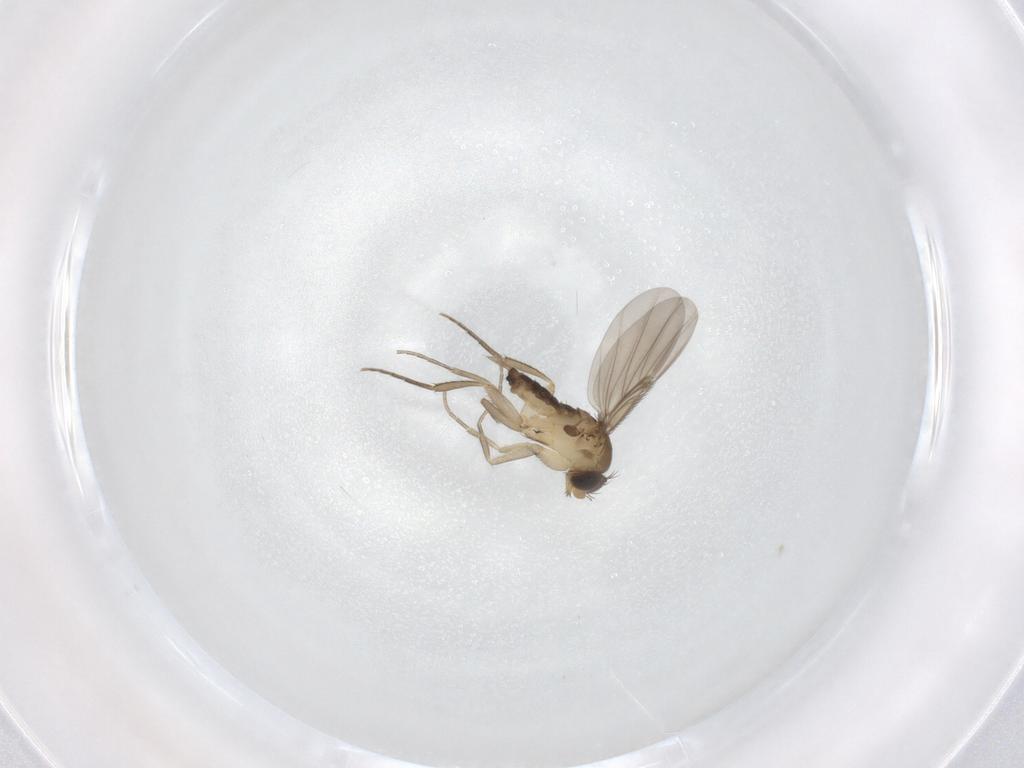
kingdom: Animalia
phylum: Arthropoda
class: Insecta
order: Diptera
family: Phoridae
